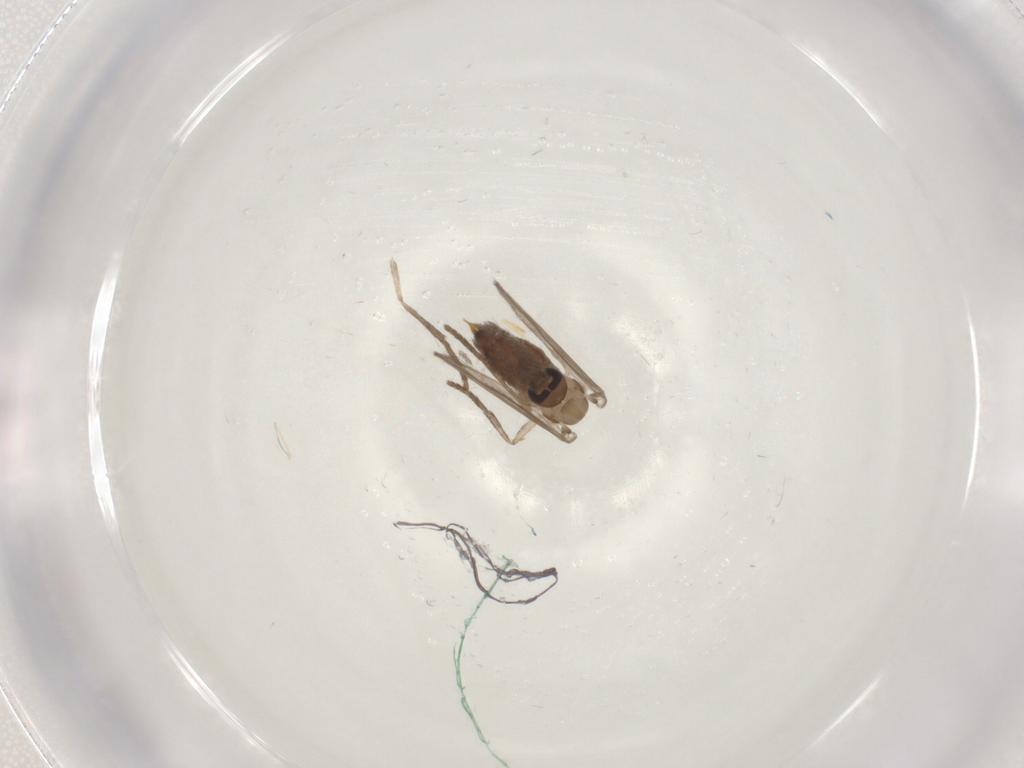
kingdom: Animalia
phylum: Arthropoda
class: Insecta
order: Diptera
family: Psychodidae
